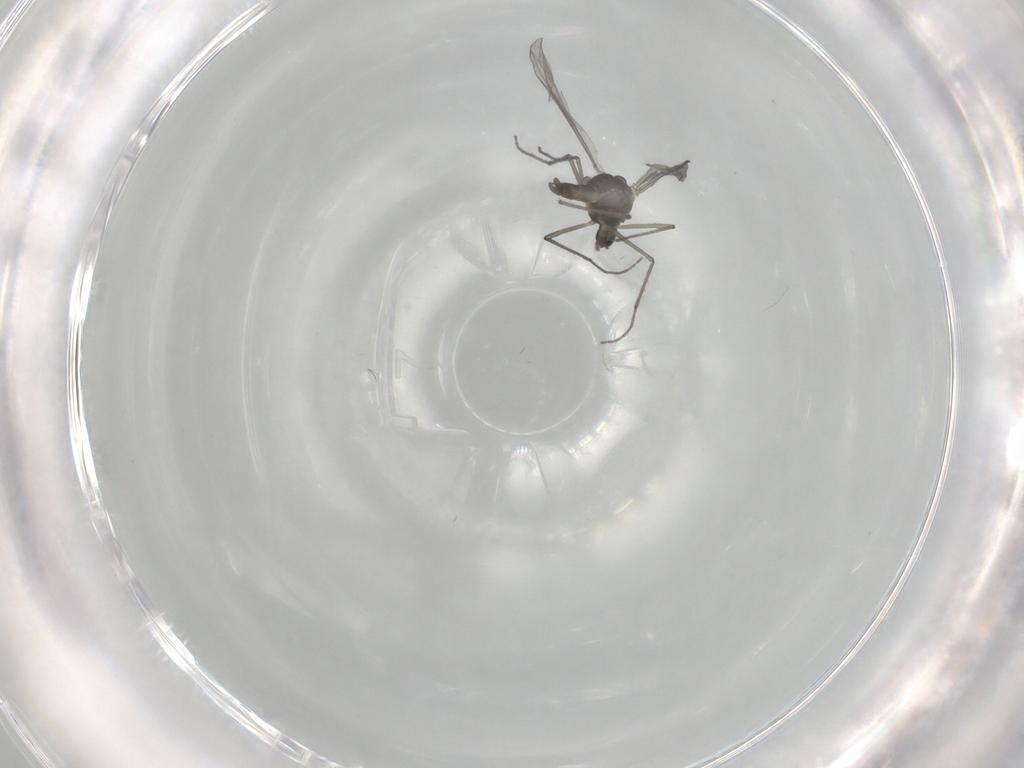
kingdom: Animalia
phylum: Arthropoda
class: Insecta
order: Diptera
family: Chironomidae
